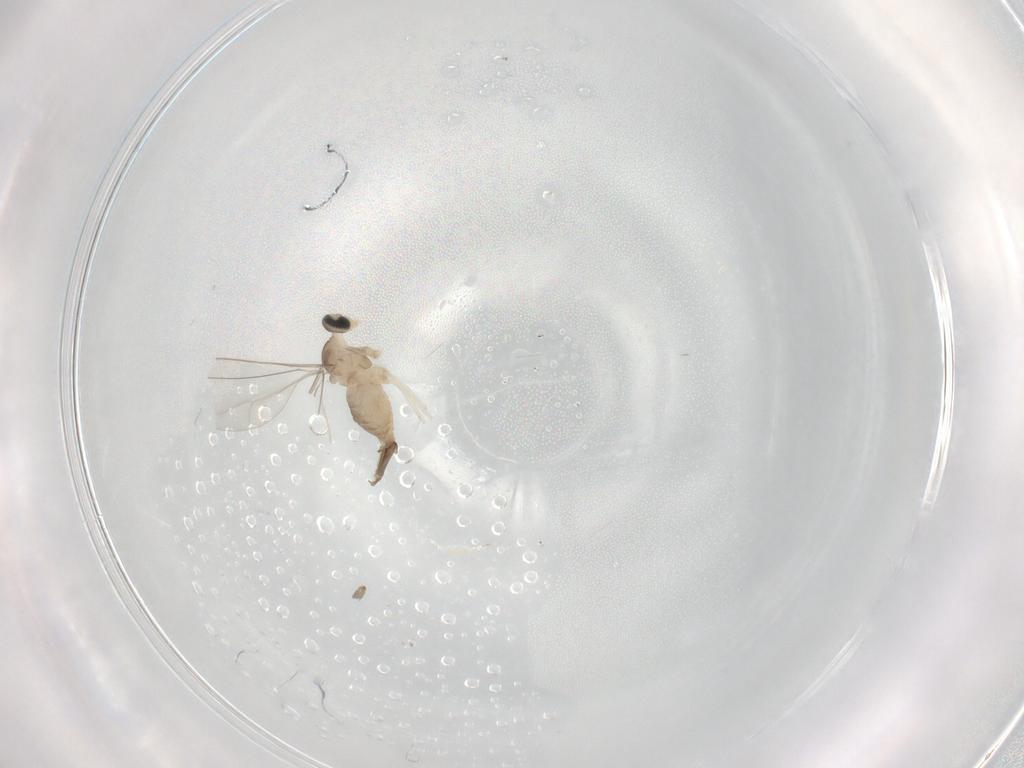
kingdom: Animalia
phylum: Arthropoda
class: Insecta
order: Diptera
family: Cecidomyiidae
